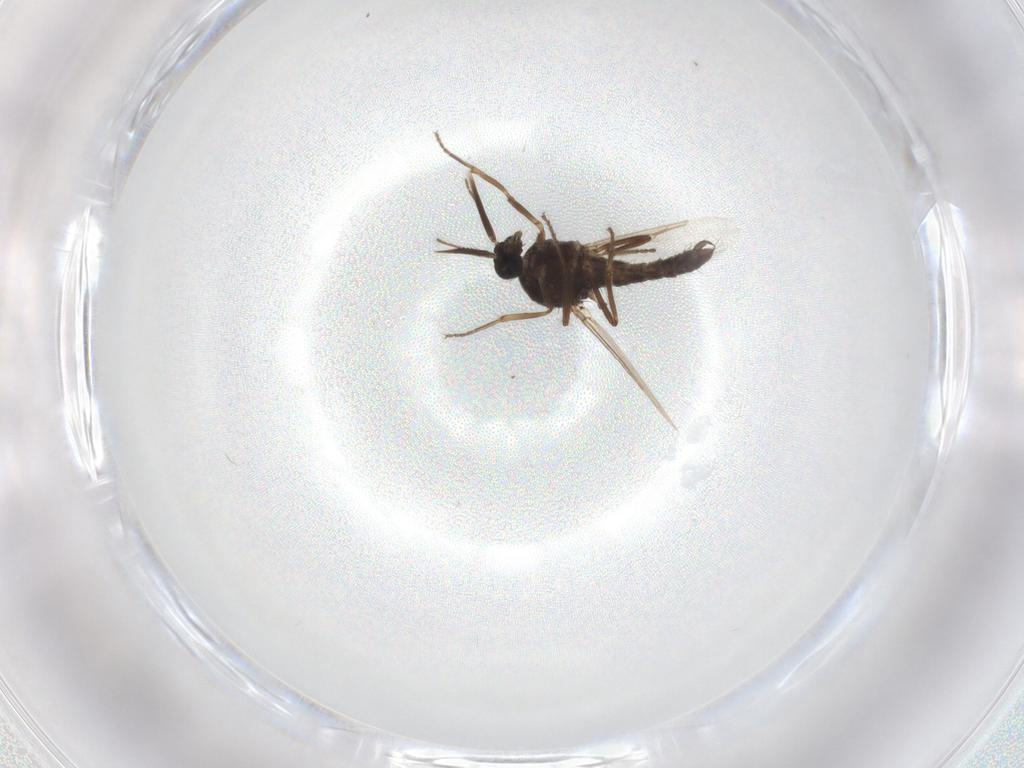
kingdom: Animalia
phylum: Arthropoda
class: Insecta
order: Diptera
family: Ceratopogonidae
